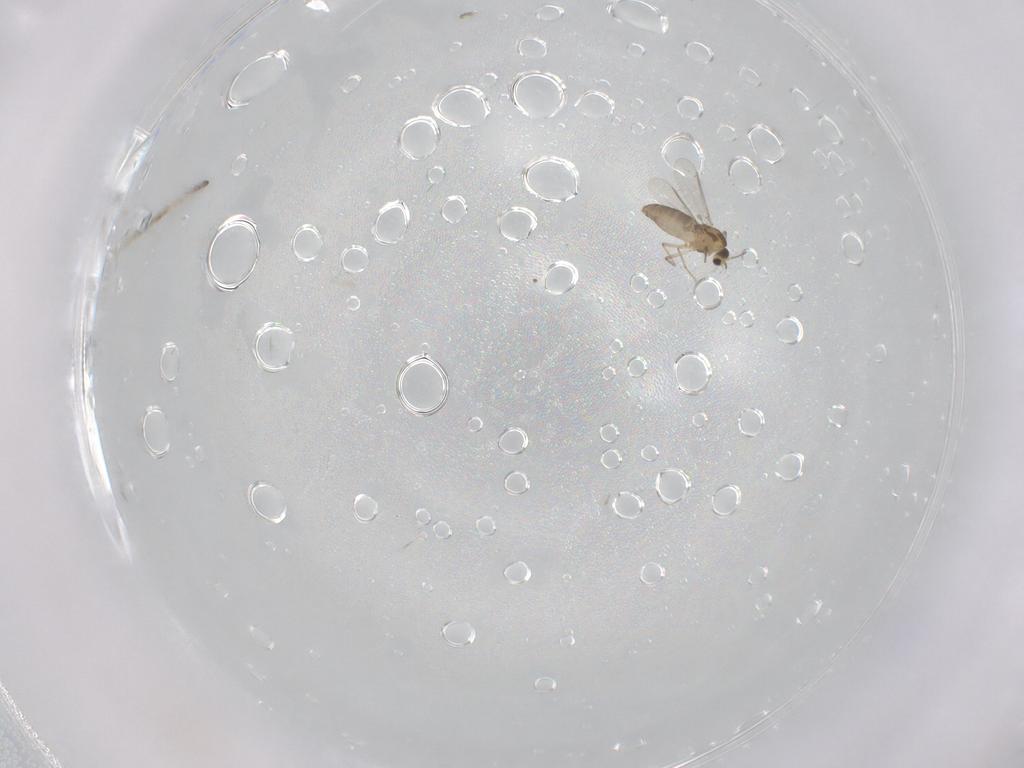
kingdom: Animalia
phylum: Arthropoda
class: Insecta
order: Diptera
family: Chironomidae
